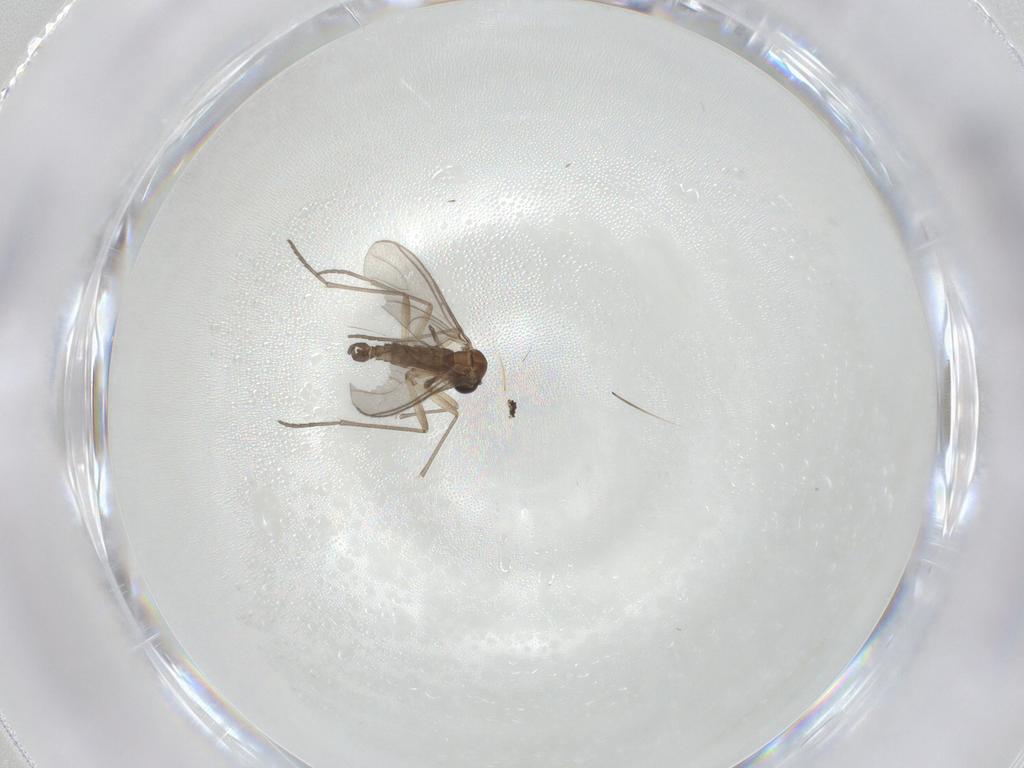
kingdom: Animalia
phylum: Arthropoda
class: Insecta
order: Diptera
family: Sciaridae
